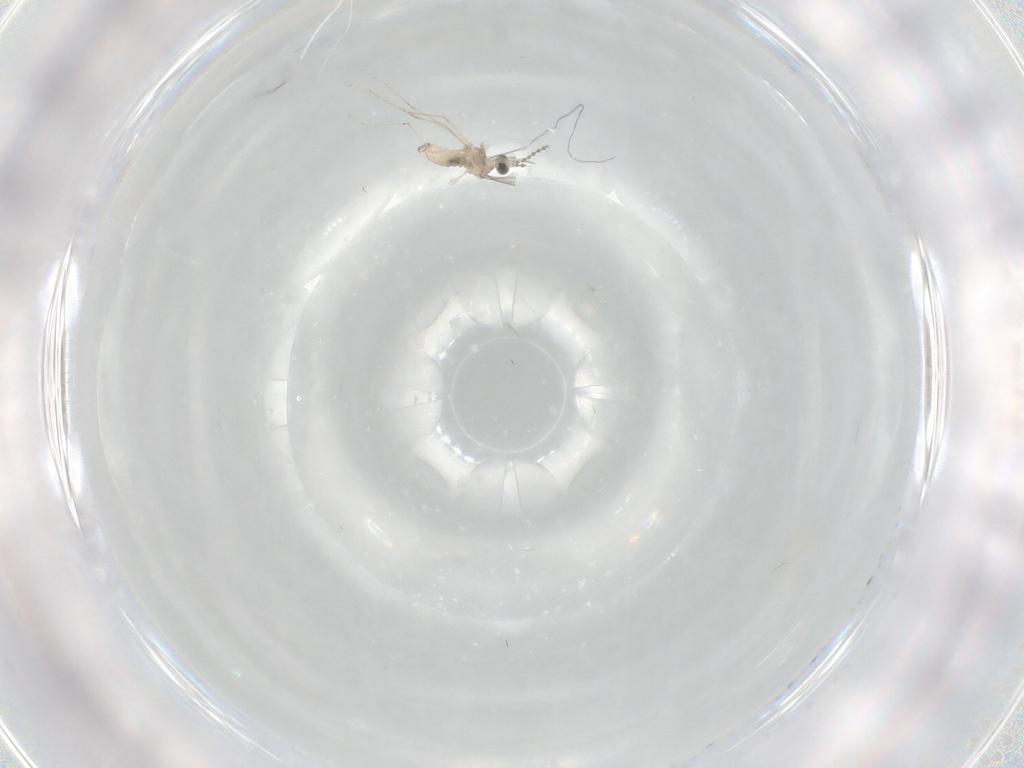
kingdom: Animalia
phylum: Arthropoda
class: Insecta
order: Diptera
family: Cecidomyiidae
